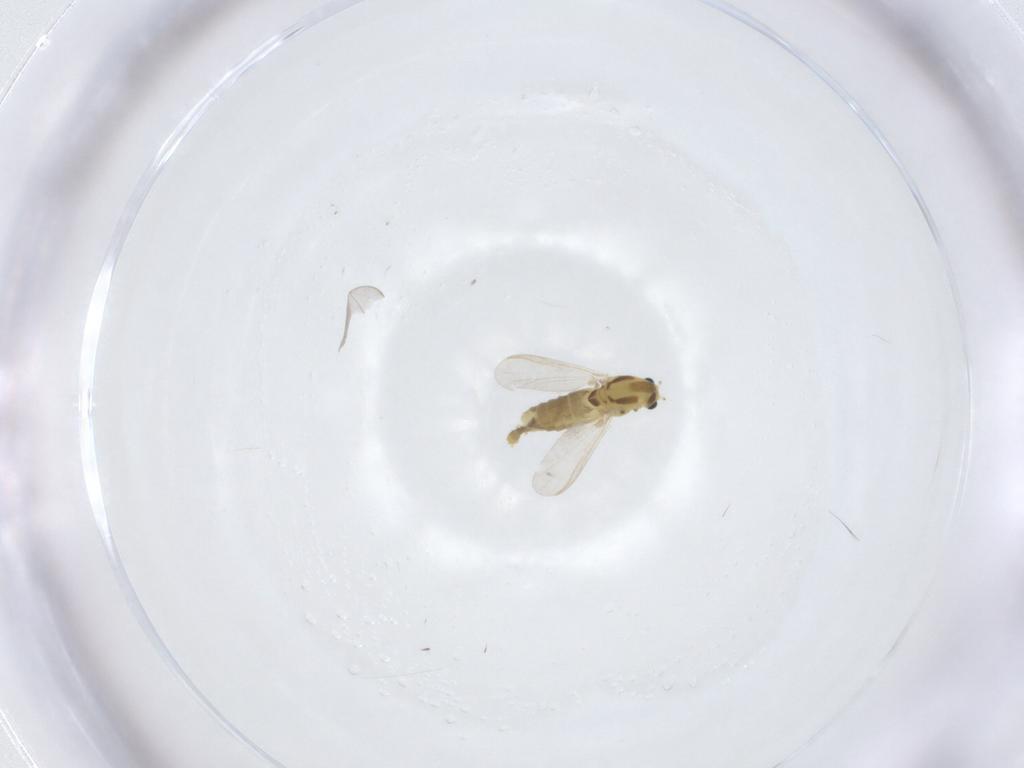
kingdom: Animalia
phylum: Arthropoda
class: Insecta
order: Diptera
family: Chironomidae
